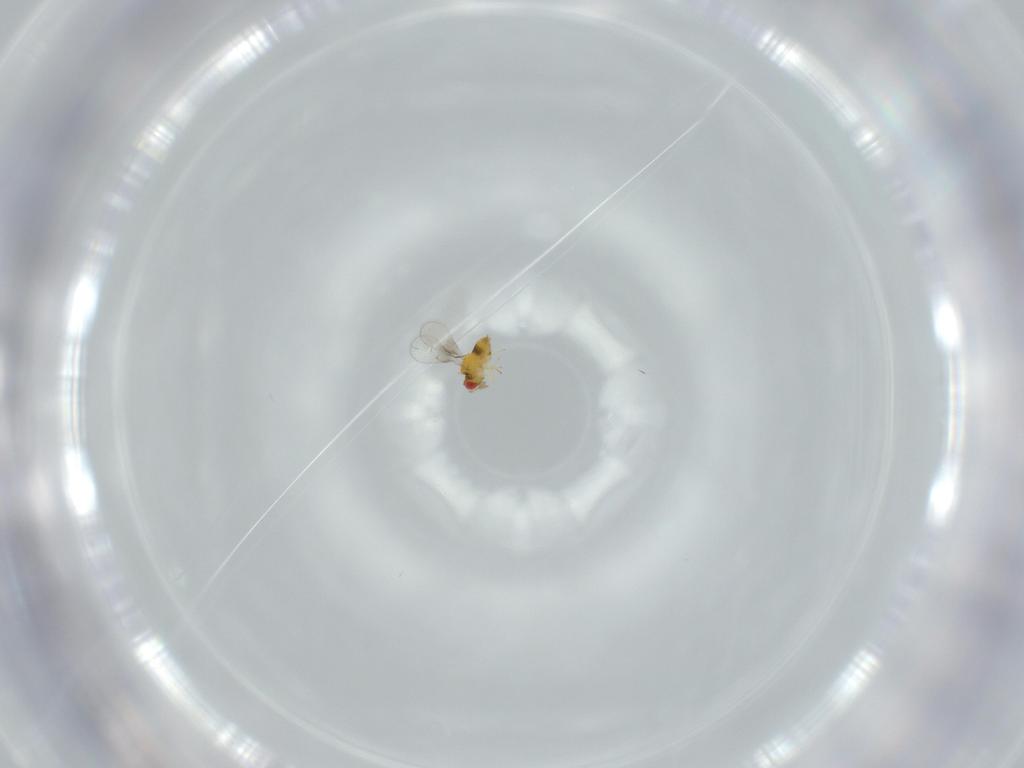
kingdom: Animalia
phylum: Arthropoda
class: Insecta
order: Hymenoptera
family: Trichogrammatidae
